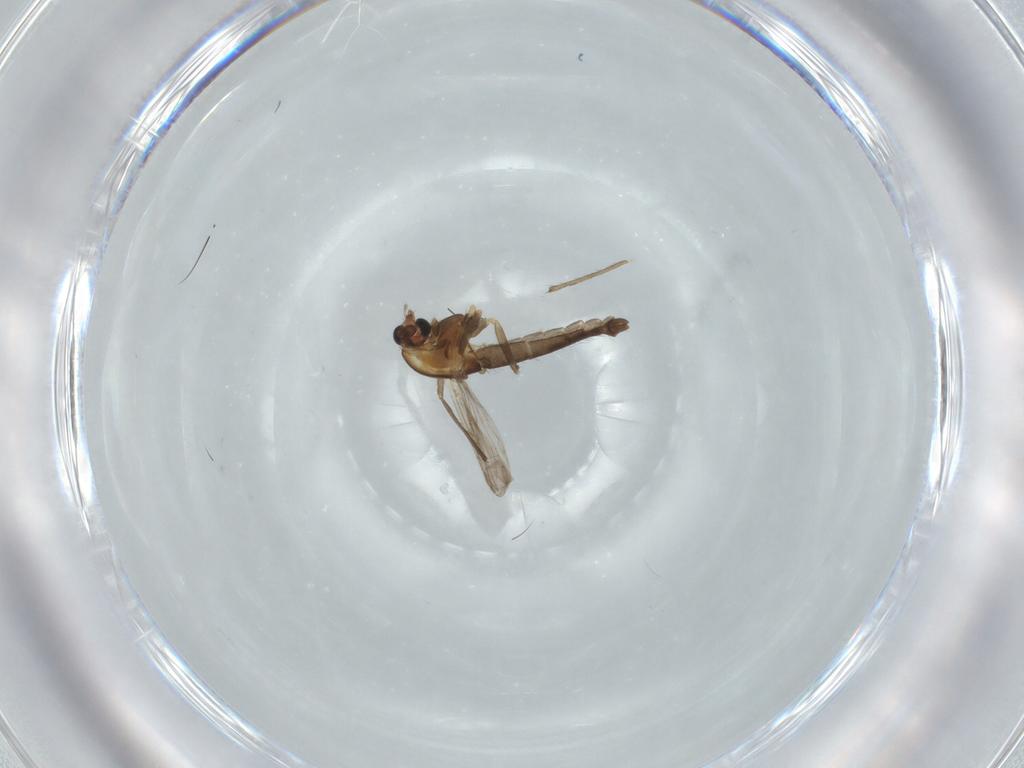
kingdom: Animalia
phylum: Arthropoda
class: Insecta
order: Diptera
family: Chironomidae
